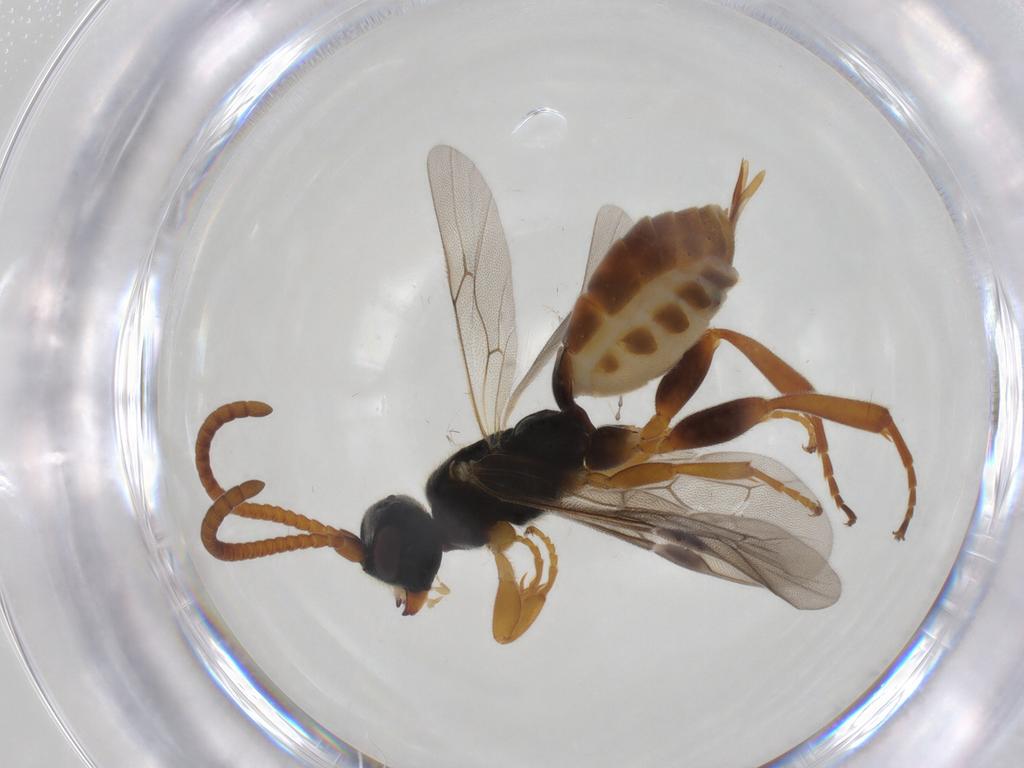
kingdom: Animalia
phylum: Arthropoda
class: Insecta
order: Hymenoptera
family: Ichneumonidae
